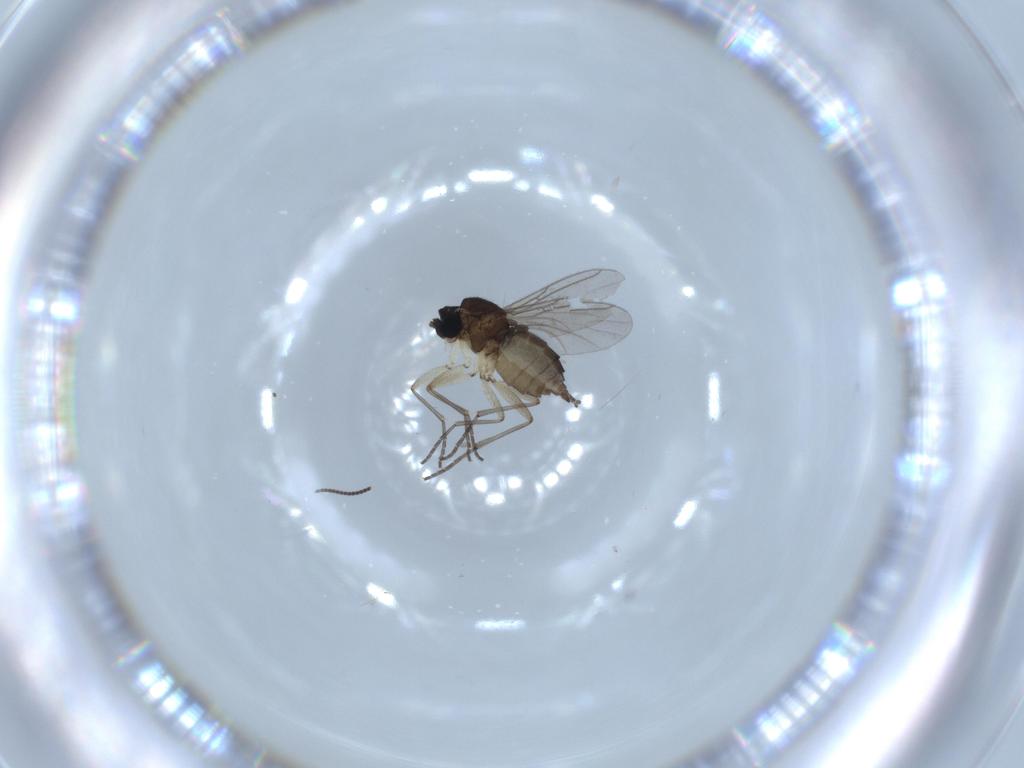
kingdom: Animalia
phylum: Arthropoda
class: Insecta
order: Diptera
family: Sciaridae
